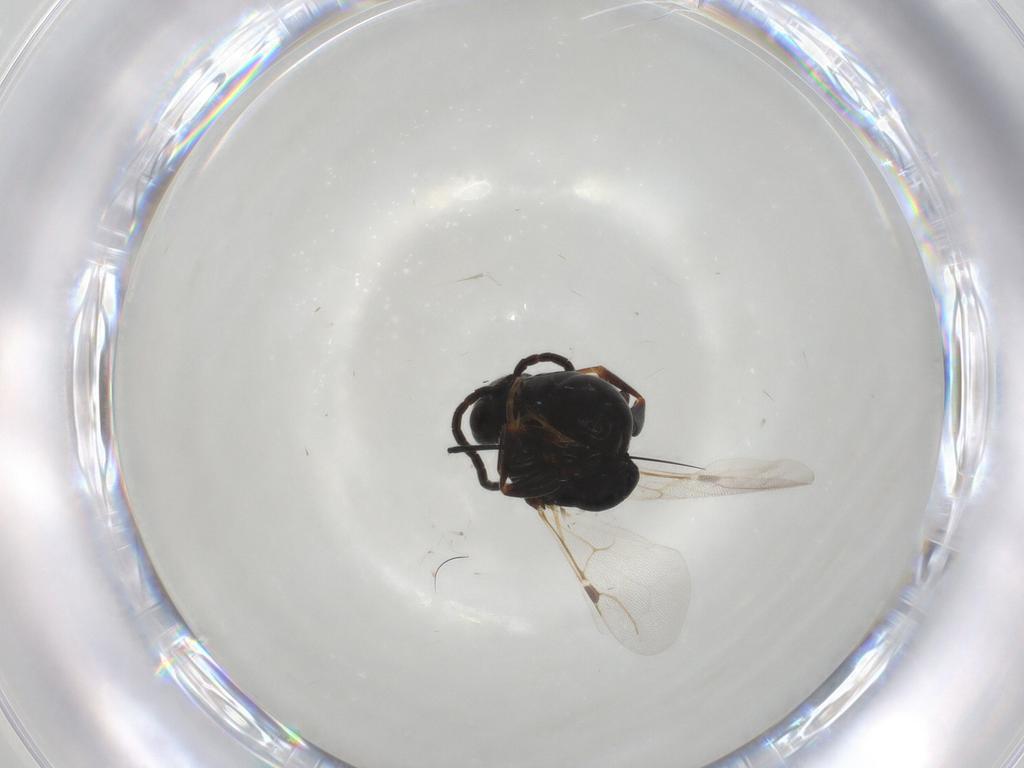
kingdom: Animalia
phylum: Arthropoda
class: Insecta
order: Hymenoptera
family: Bethylidae
